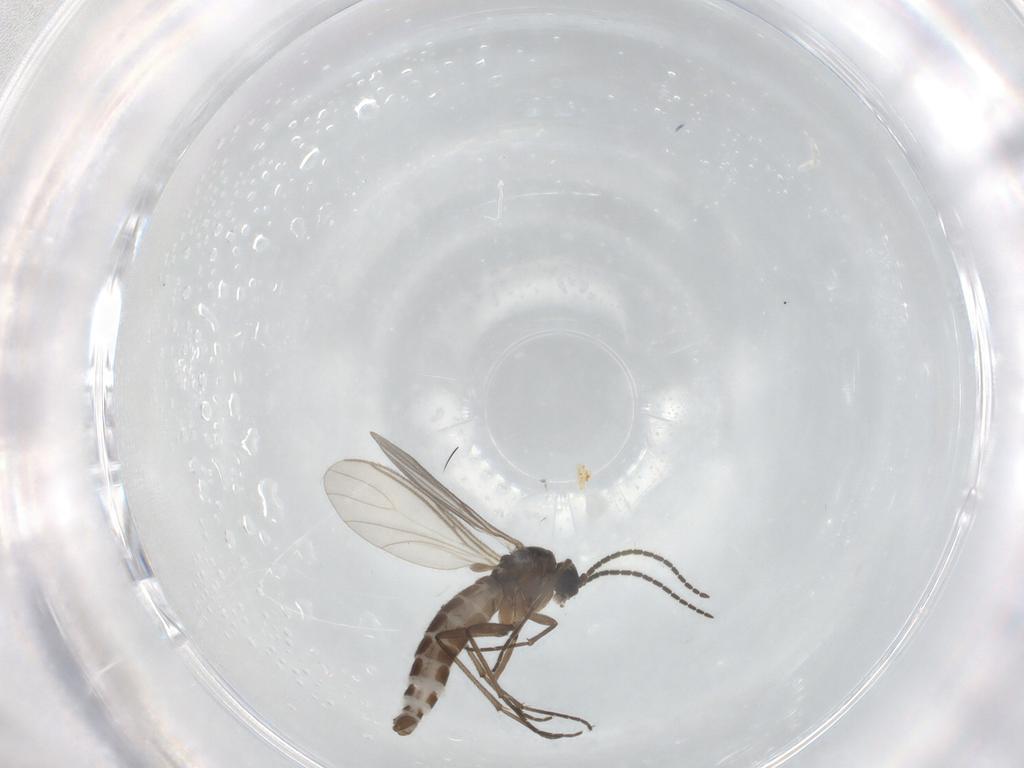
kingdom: Animalia
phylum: Arthropoda
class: Insecta
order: Diptera
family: Sciaridae
